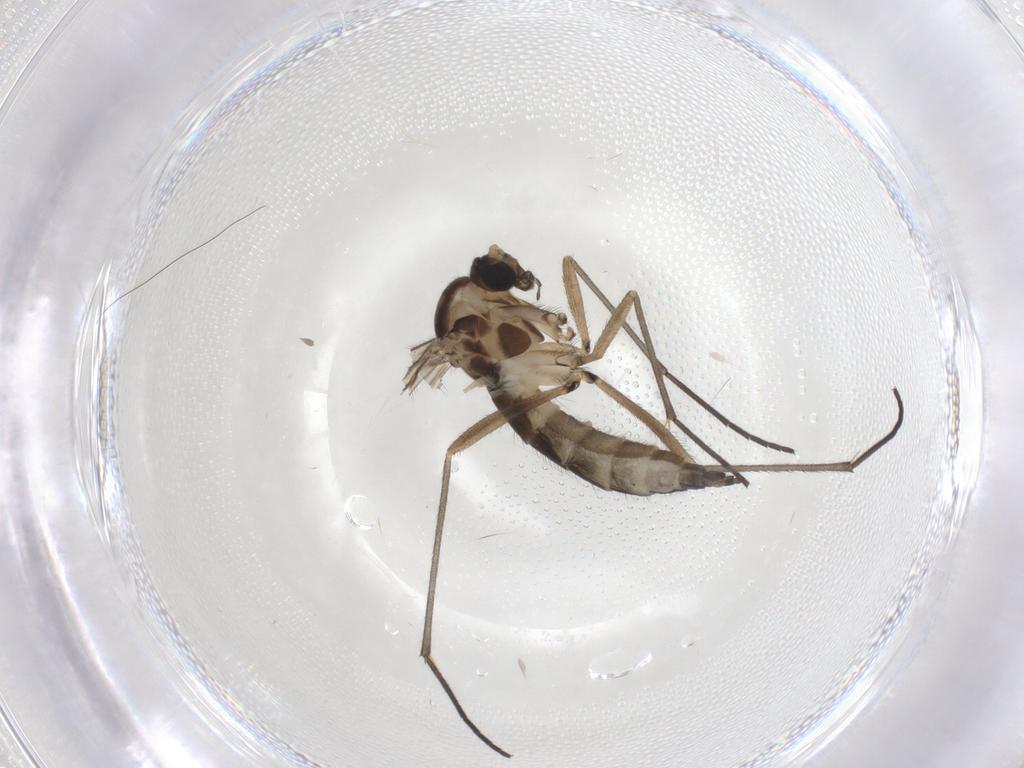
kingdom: Animalia
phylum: Arthropoda
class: Insecta
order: Diptera
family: Sciaridae
